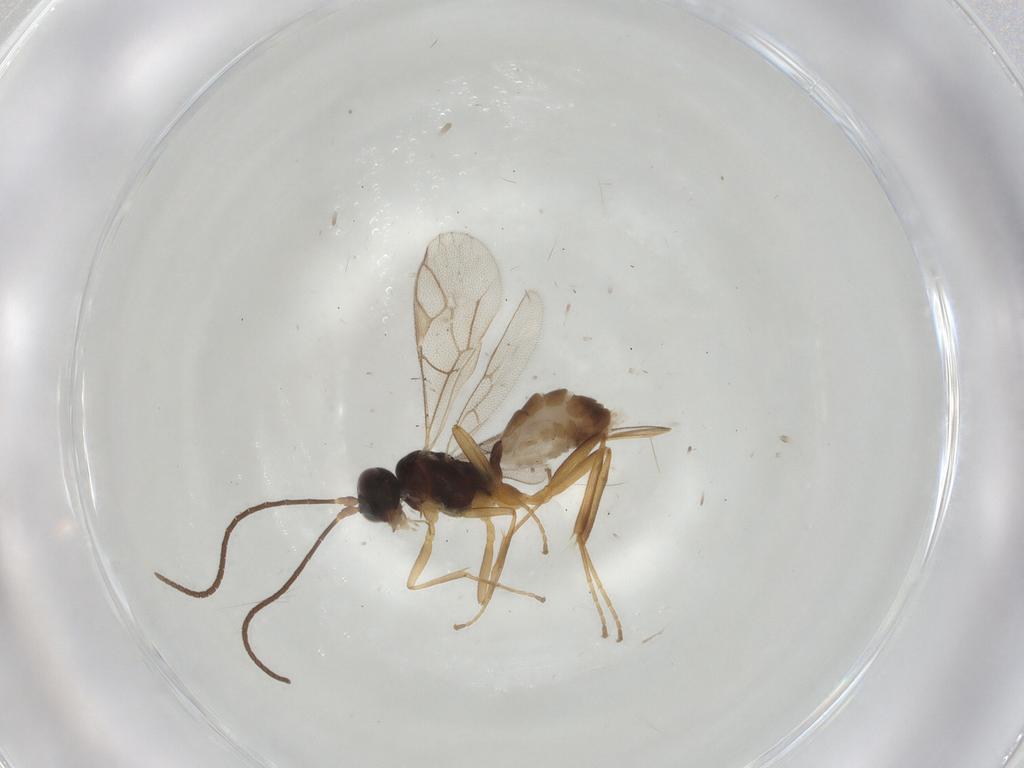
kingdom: Animalia
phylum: Arthropoda
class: Insecta
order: Hymenoptera
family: Ichneumonidae
